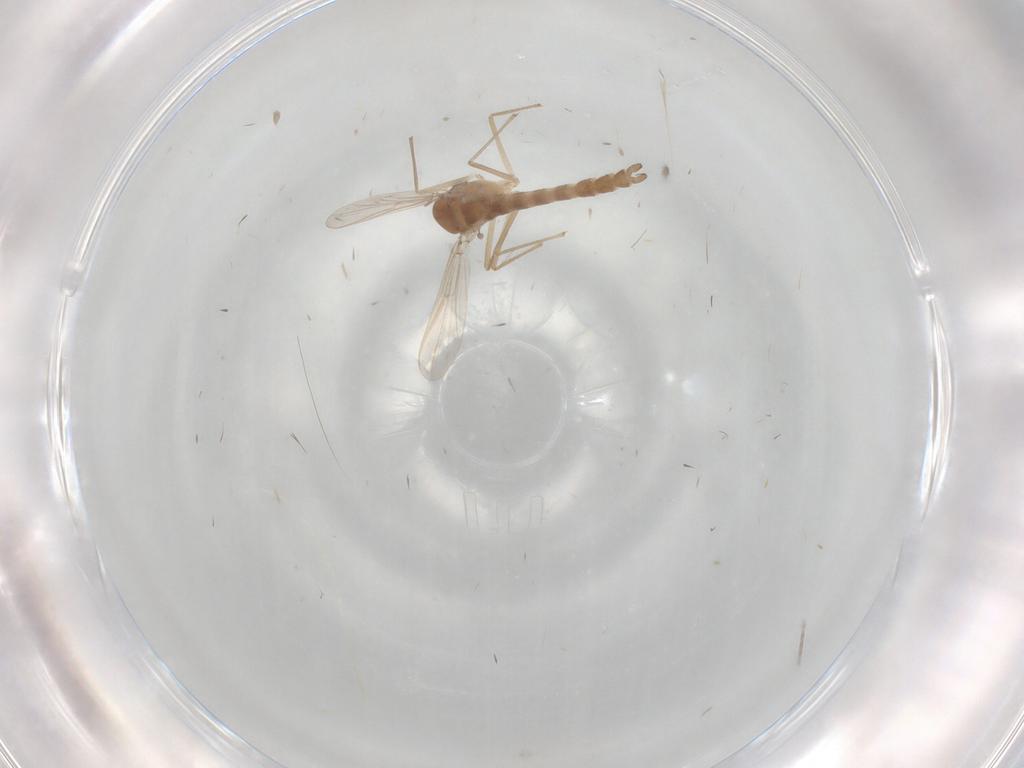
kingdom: Animalia
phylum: Arthropoda
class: Insecta
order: Diptera
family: Chironomidae
